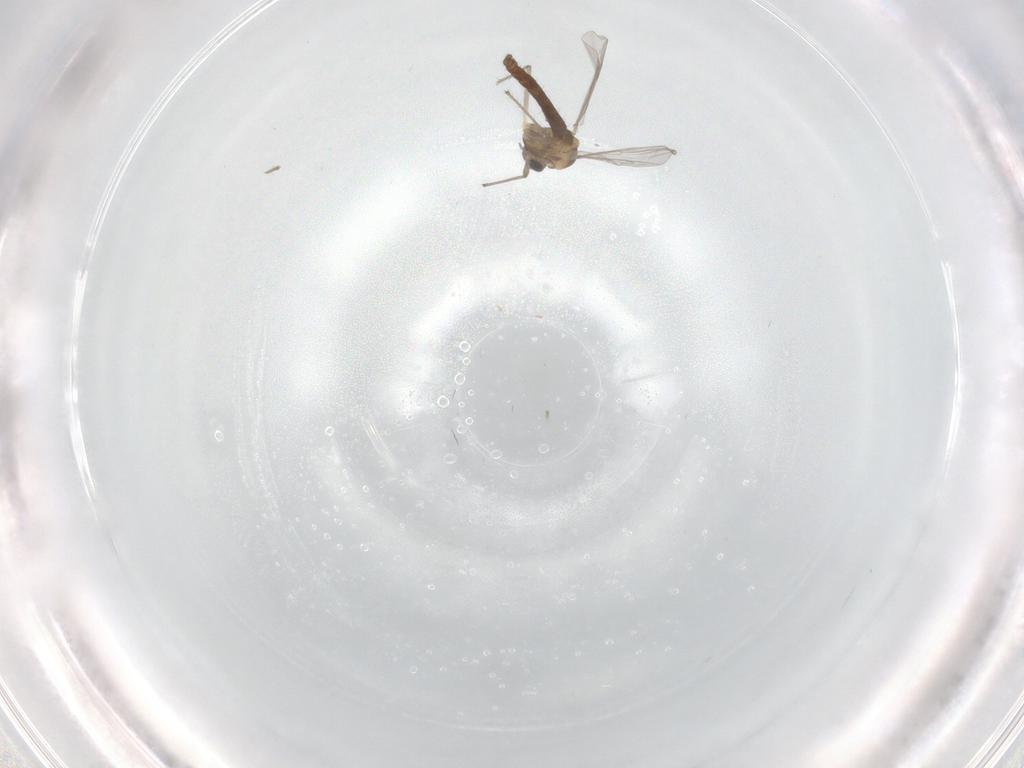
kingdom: Animalia
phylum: Arthropoda
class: Insecta
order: Diptera
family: Chironomidae
